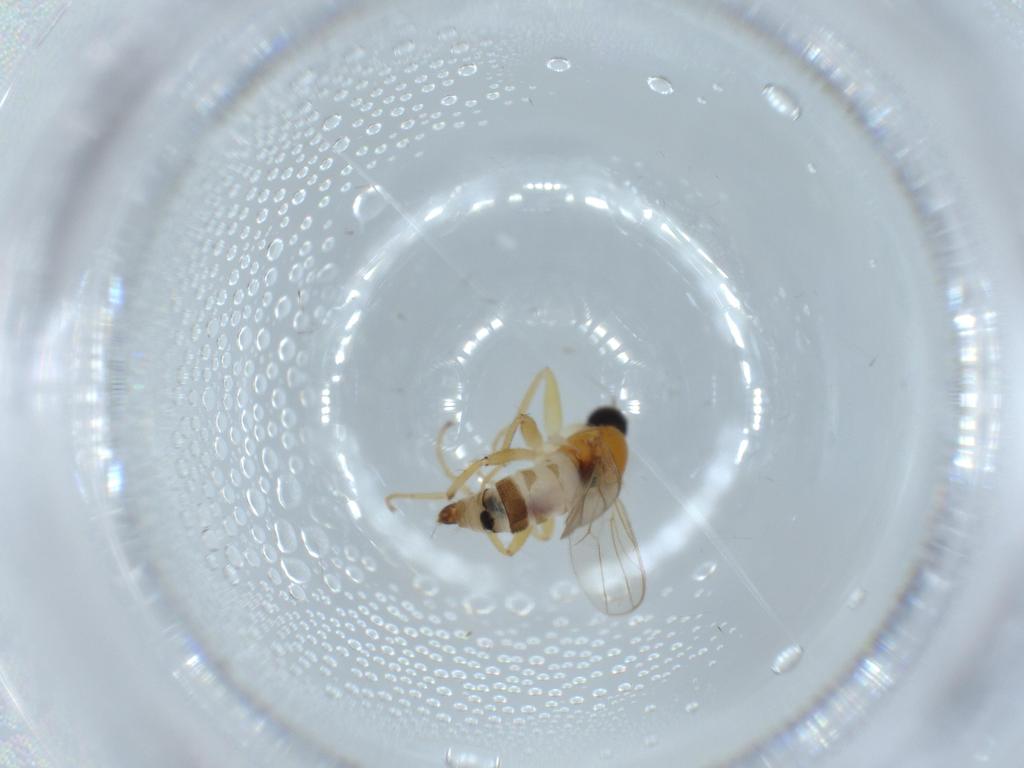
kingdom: Animalia
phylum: Arthropoda
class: Insecta
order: Diptera
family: Hybotidae
